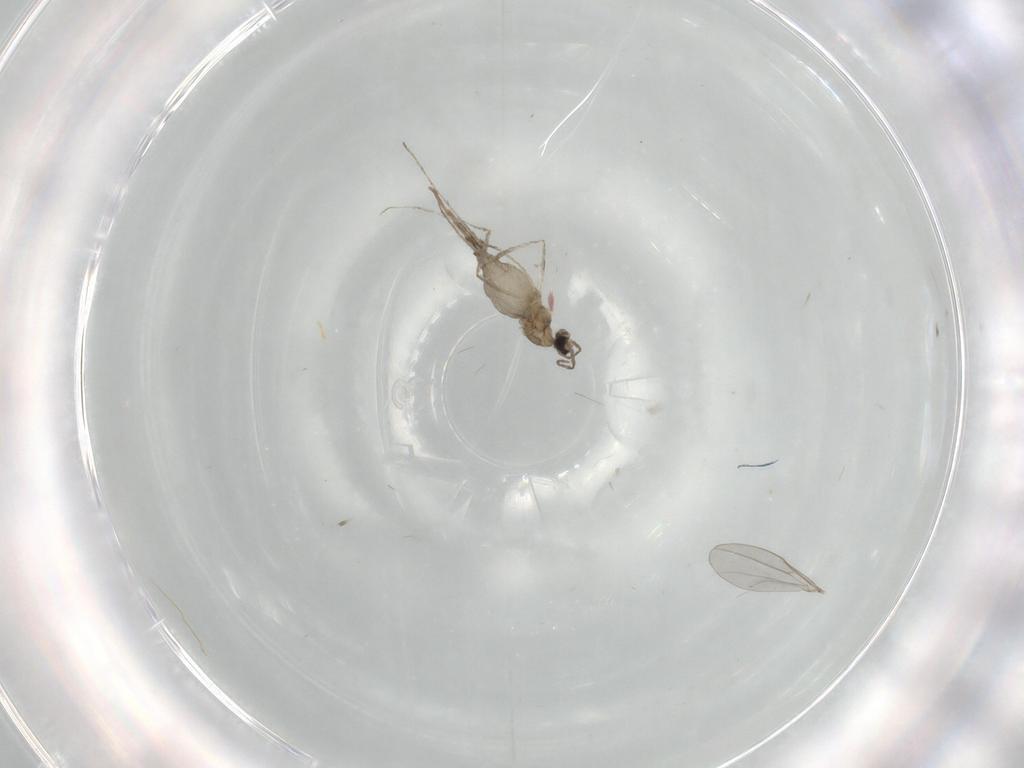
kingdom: Animalia
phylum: Arthropoda
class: Insecta
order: Diptera
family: Cecidomyiidae
